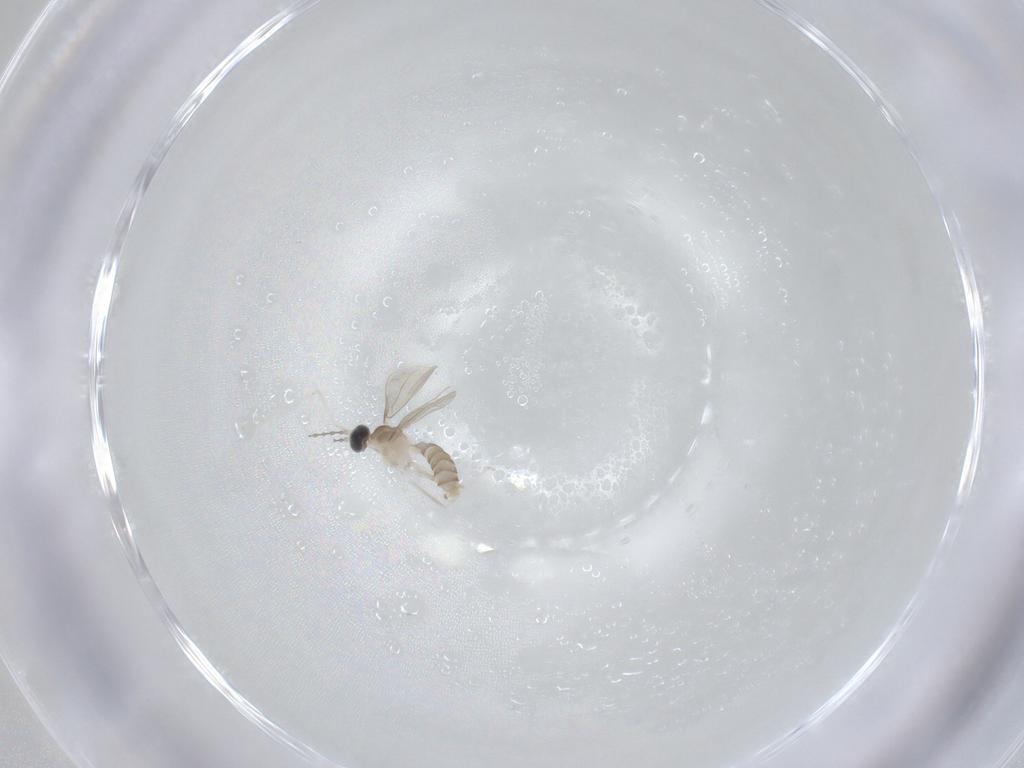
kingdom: Animalia
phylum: Arthropoda
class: Insecta
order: Diptera
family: Cecidomyiidae
